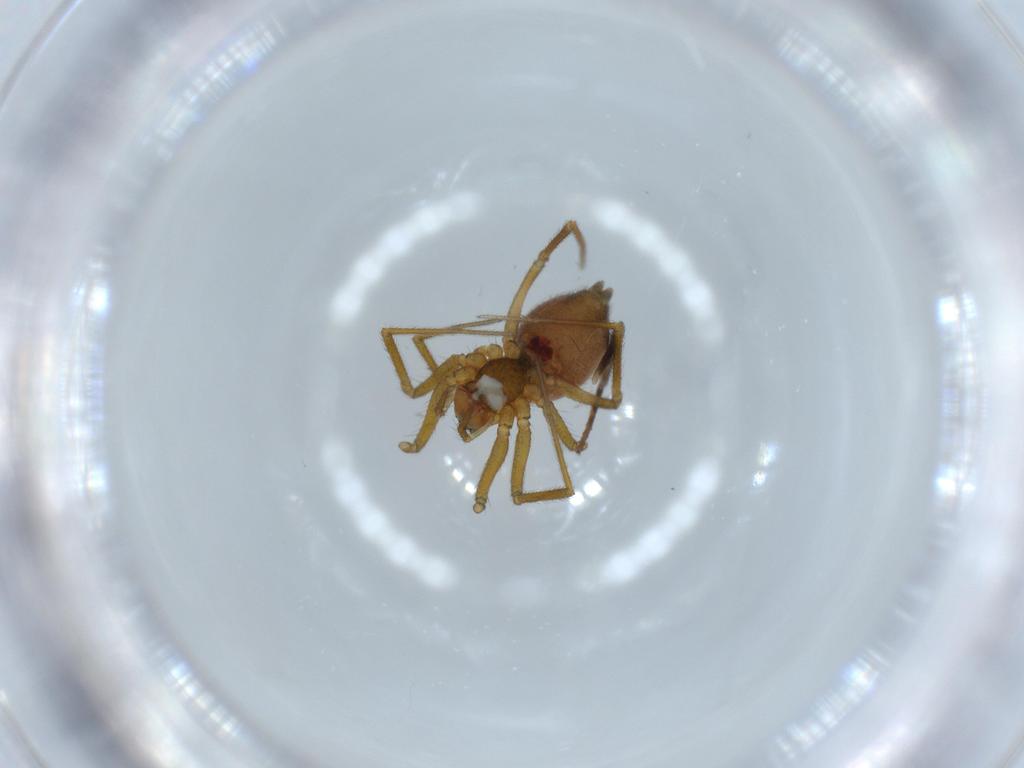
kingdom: Animalia
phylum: Arthropoda
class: Arachnida
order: Araneae
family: Linyphiidae
